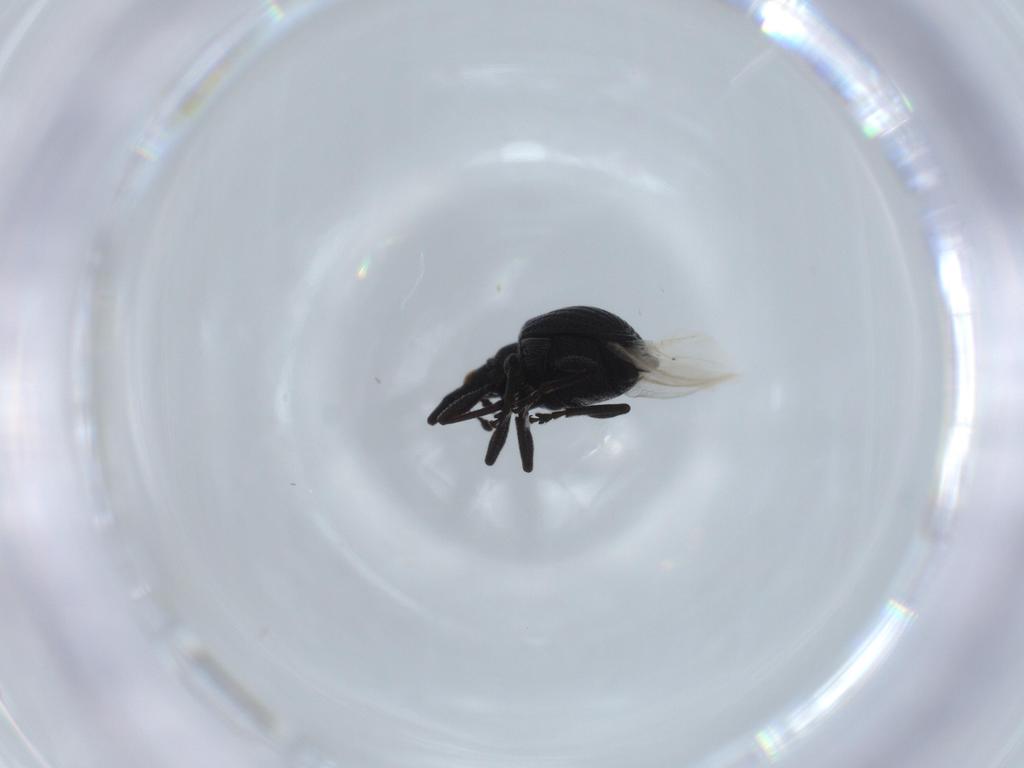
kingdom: Animalia
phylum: Arthropoda
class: Insecta
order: Coleoptera
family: Brentidae
